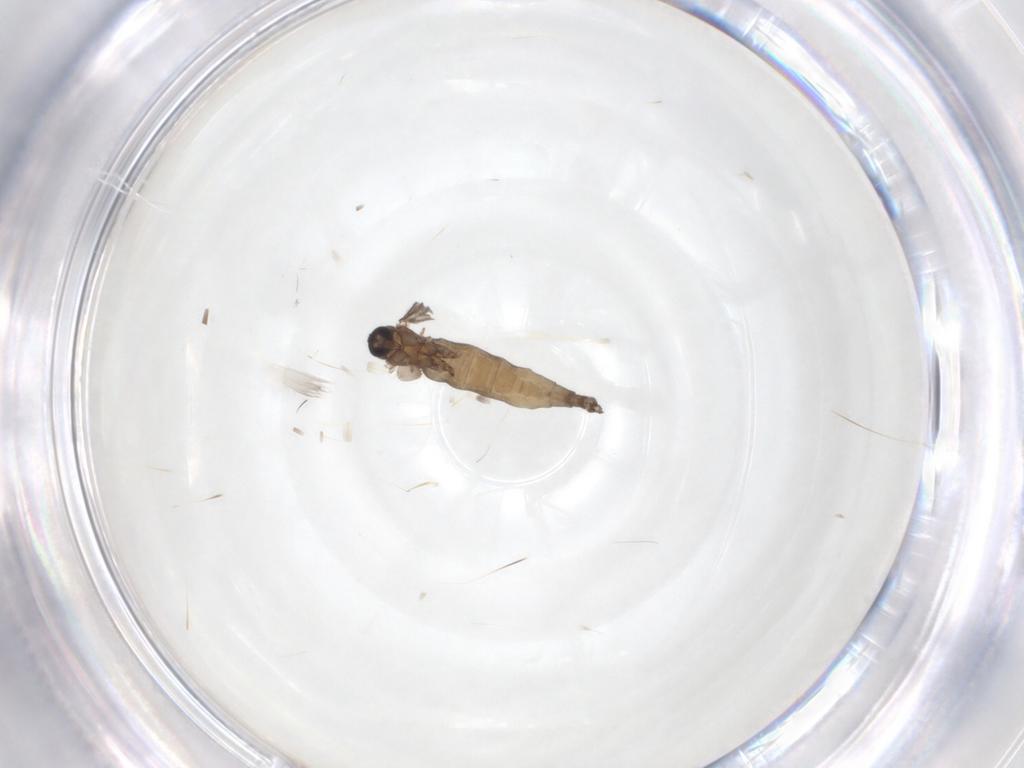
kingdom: Animalia
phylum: Arthropoda
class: Insecta
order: Diptera
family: Sciaridae
